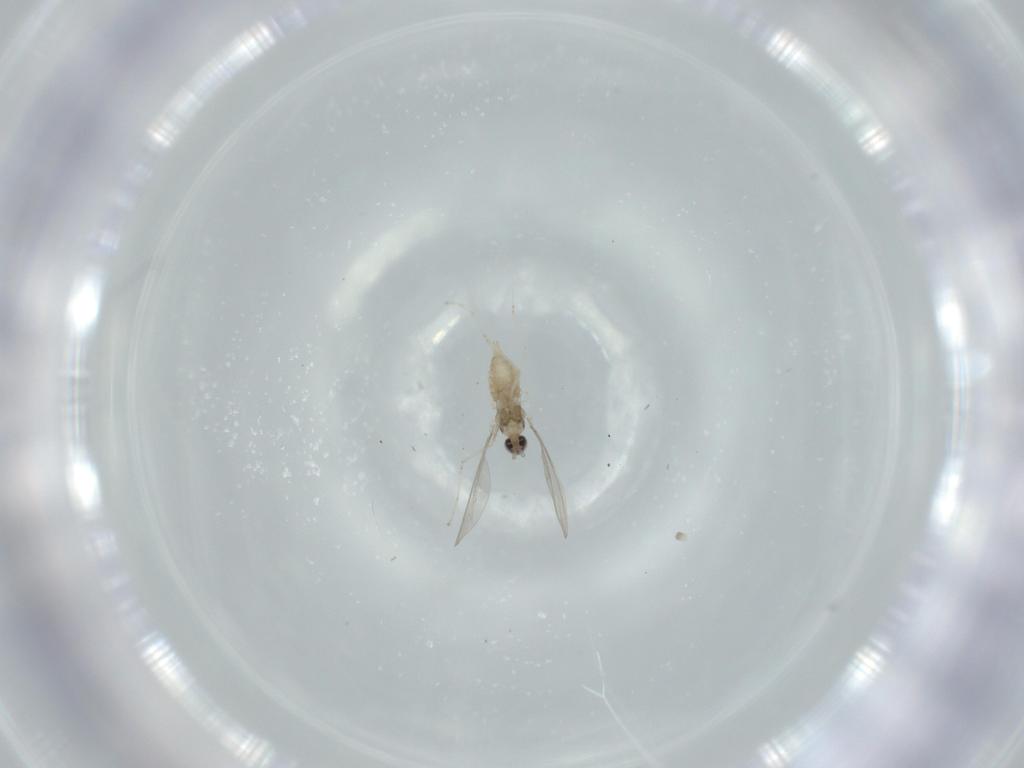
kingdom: Animalia
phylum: Arthropoda
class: Insecta
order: Diptera
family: Cecidomyiidae
